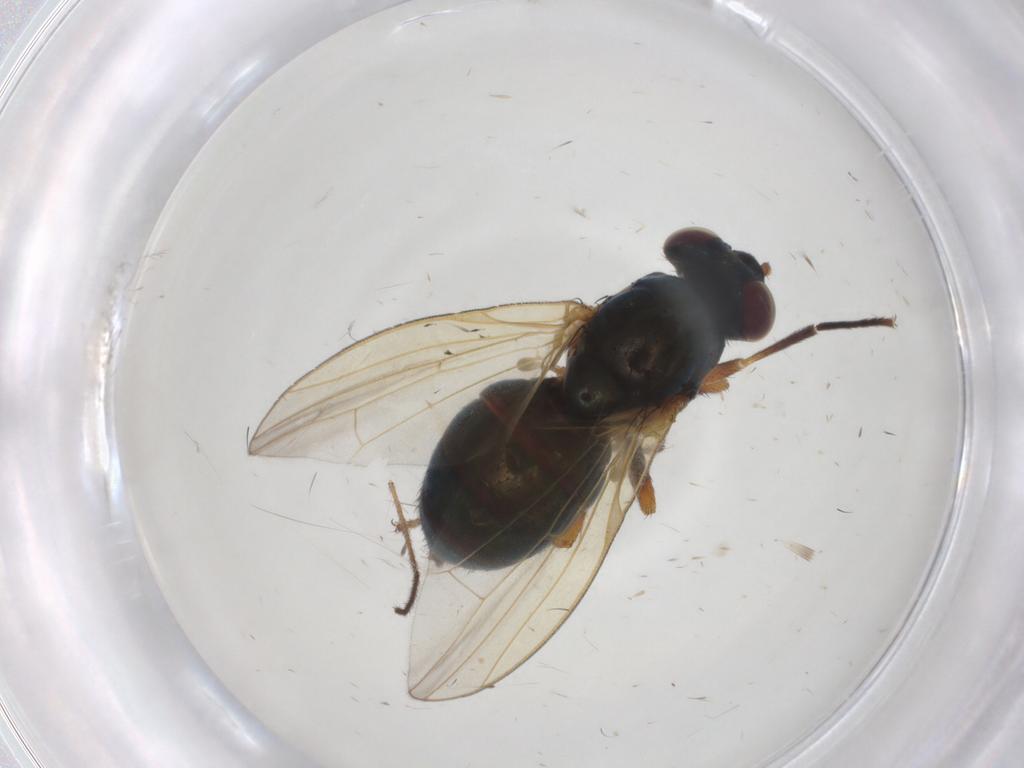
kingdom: Animalia
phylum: Arthropoda
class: Insecta
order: Diptera
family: Lauxaniidae
